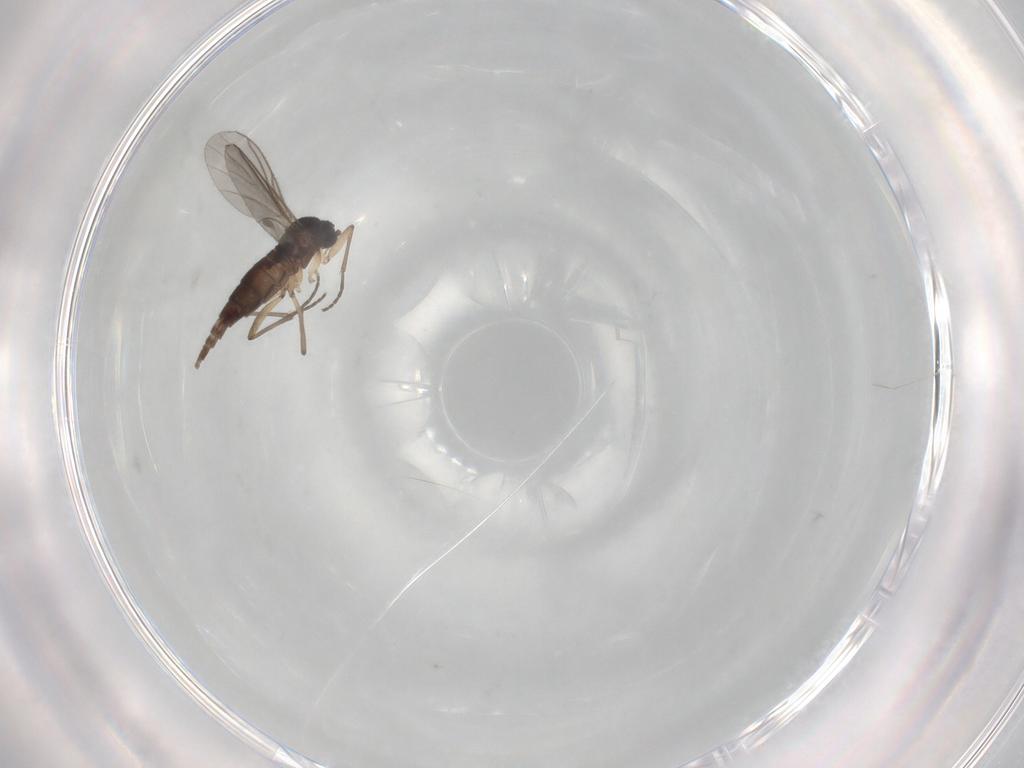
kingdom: Animalia
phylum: Arthropoda
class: Insecta
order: Diptera
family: Sciaridae
